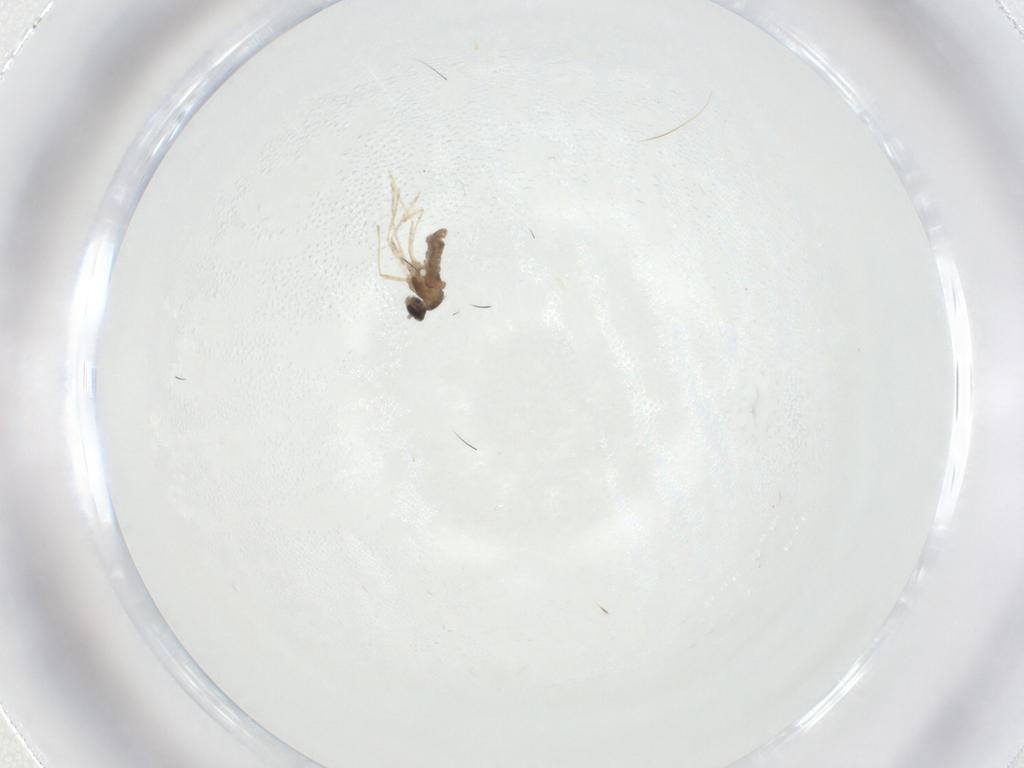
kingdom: Animalia
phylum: Arthropoda
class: Insecta
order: Diptera
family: Cecidomyiidae
